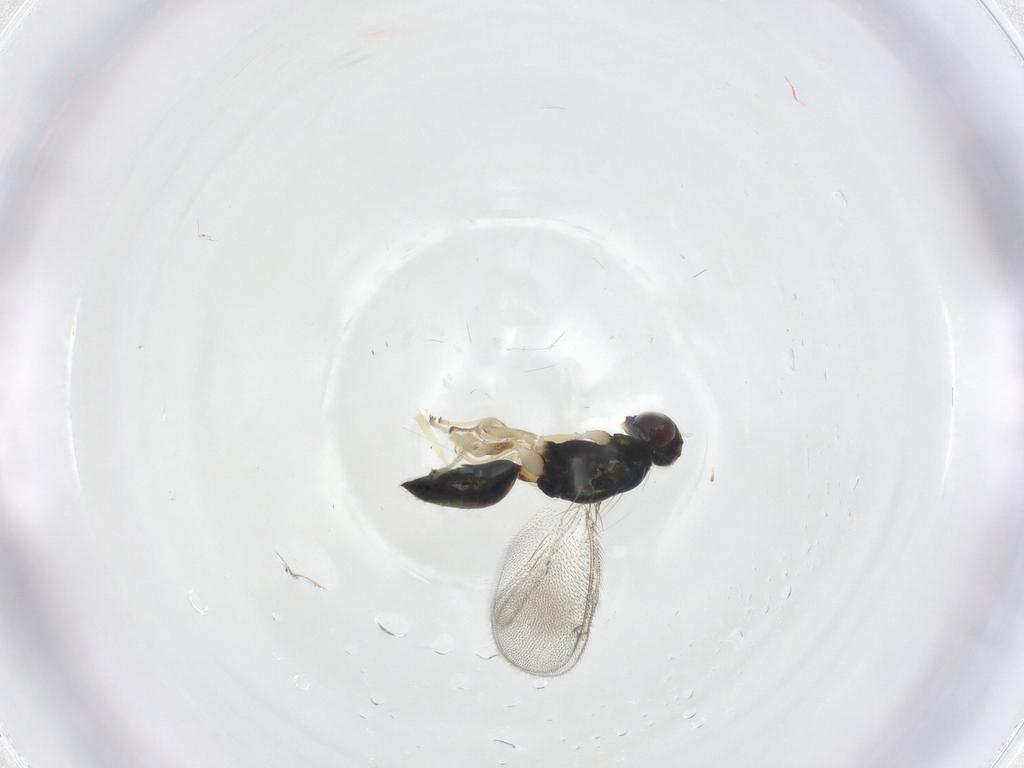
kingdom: Animalia
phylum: Arthropoda
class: Insecta
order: Hymenoptera
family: Eulophidae
